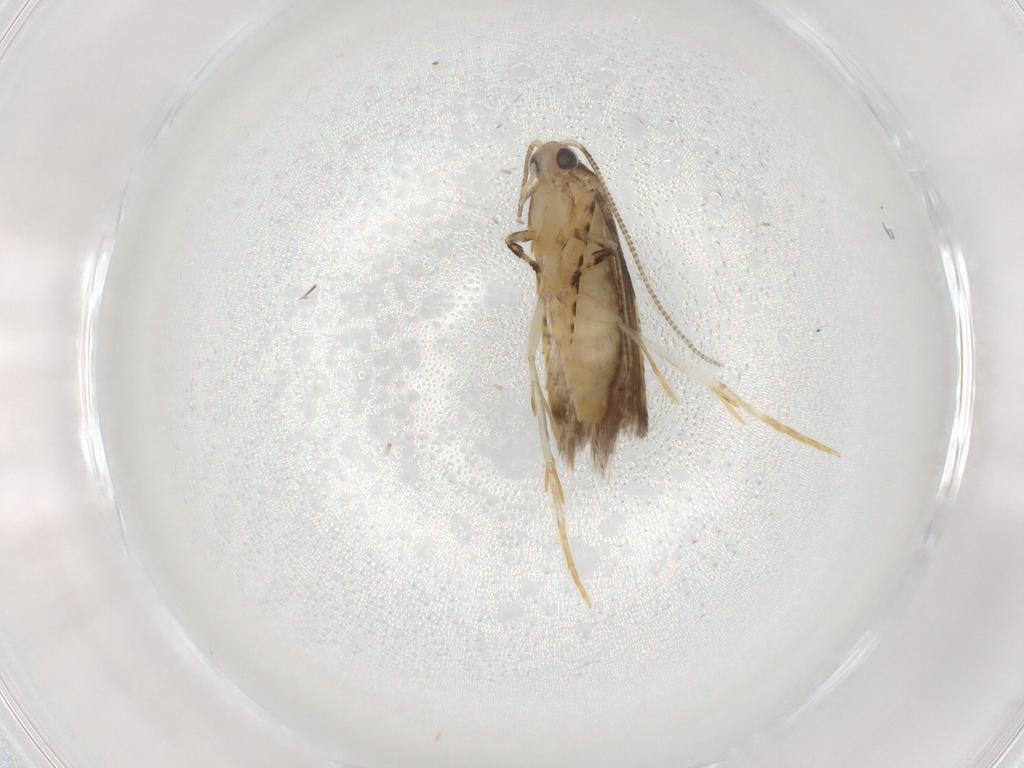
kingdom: Animalia
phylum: Arthropoda
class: Insecta
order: Lepidoptera
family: Tineidae
